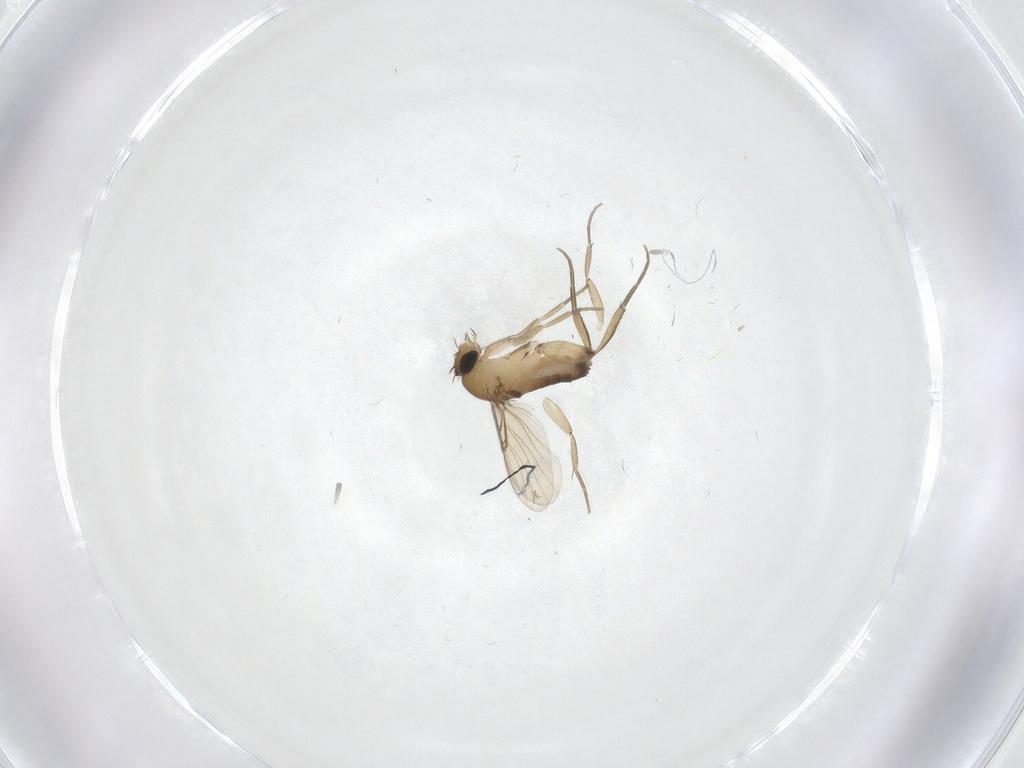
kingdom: Animalia
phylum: Arthropoda
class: Insecta
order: Diptera
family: Phoridae
